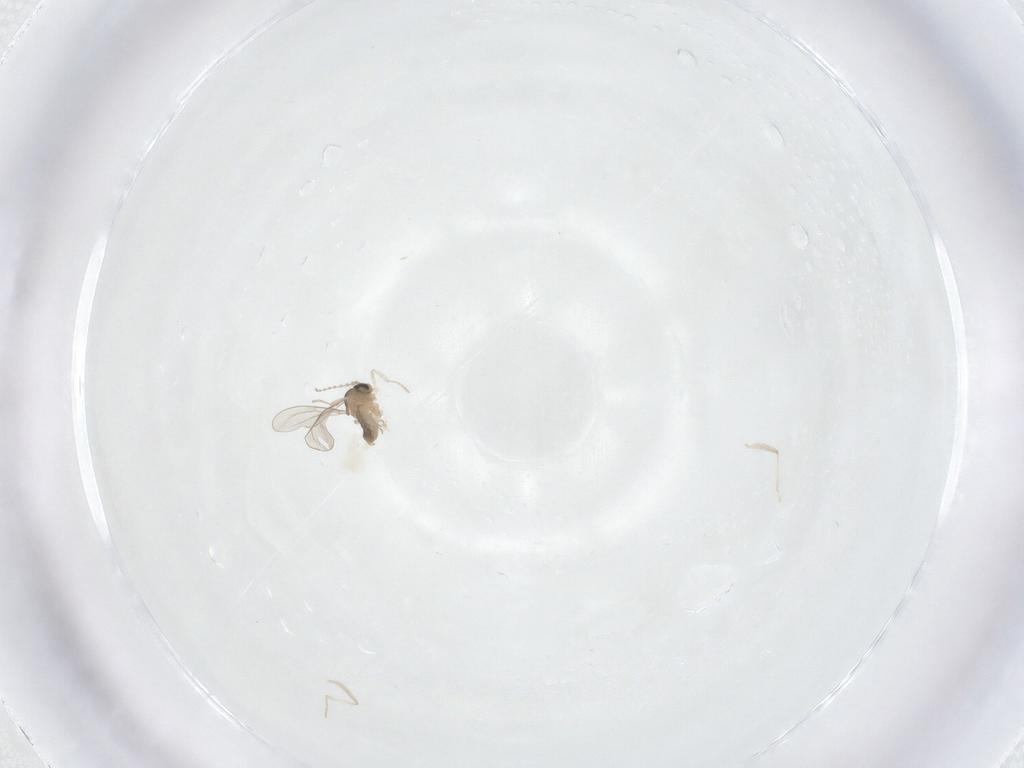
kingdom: Animalia
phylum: Arthropoda
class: Insecta
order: Diptera
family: Cecidomyiidae
